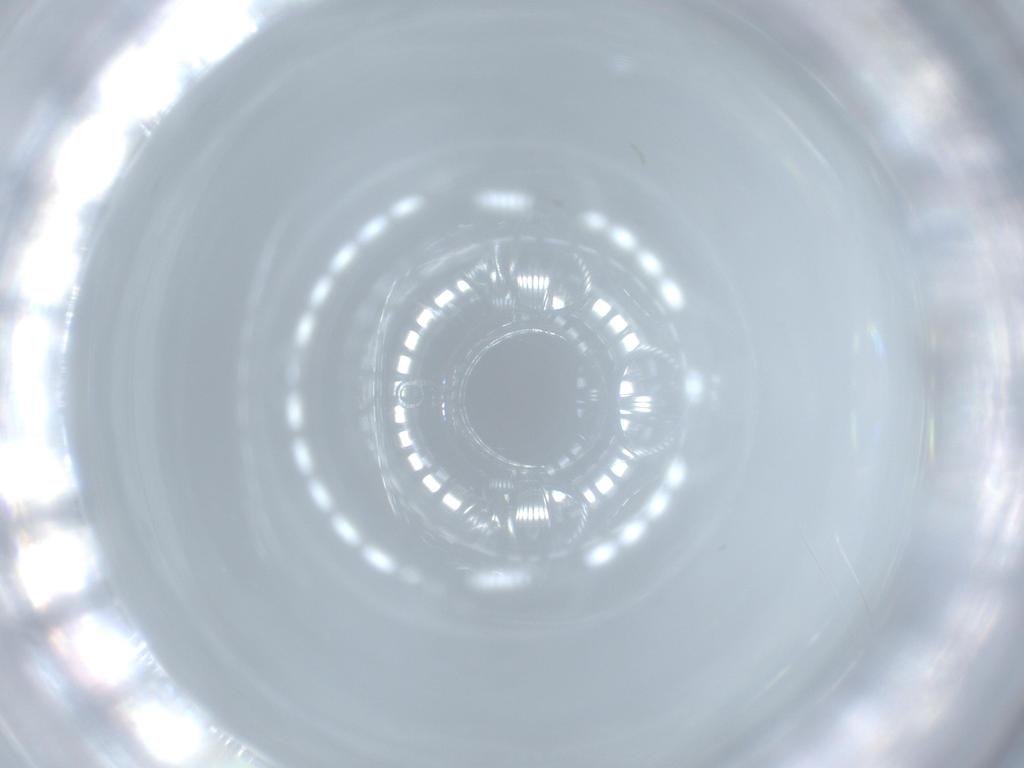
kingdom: Animalia
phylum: Arthropoda
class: Insecta
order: Diptera
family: Cecidomyiidae
